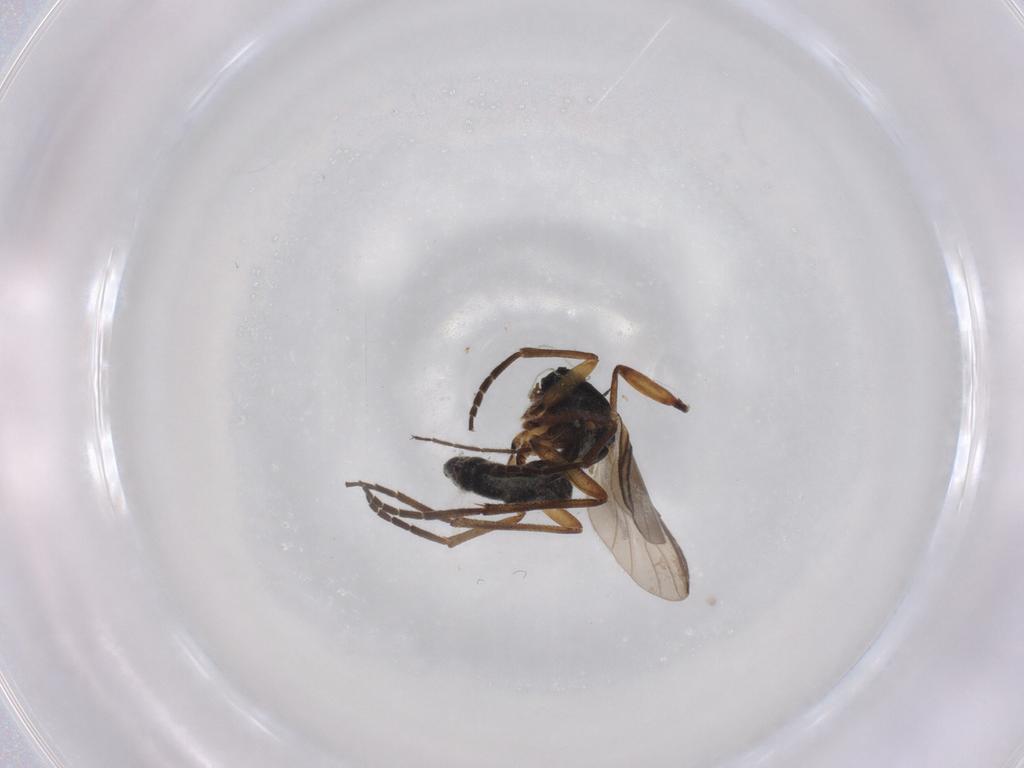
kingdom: Animalia
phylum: Arthropoda
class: Insecta
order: Diptera
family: Sciaridae
